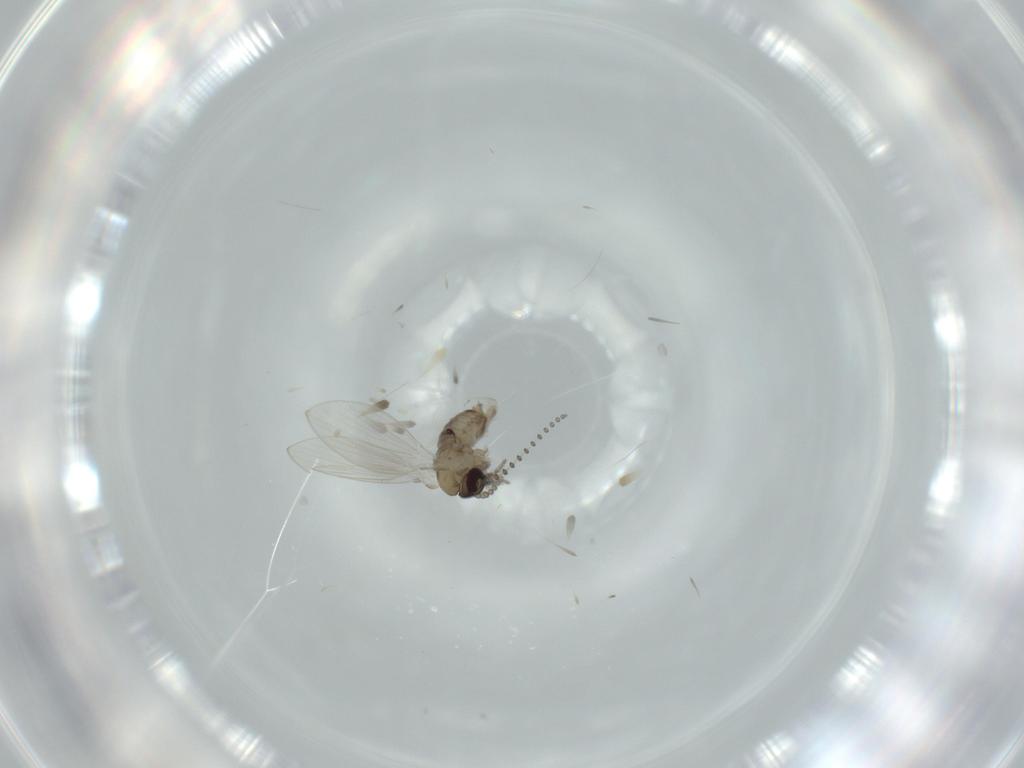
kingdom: Animalia
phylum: Arthropoda
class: Insecta
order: Diptera
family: Psychodidae
